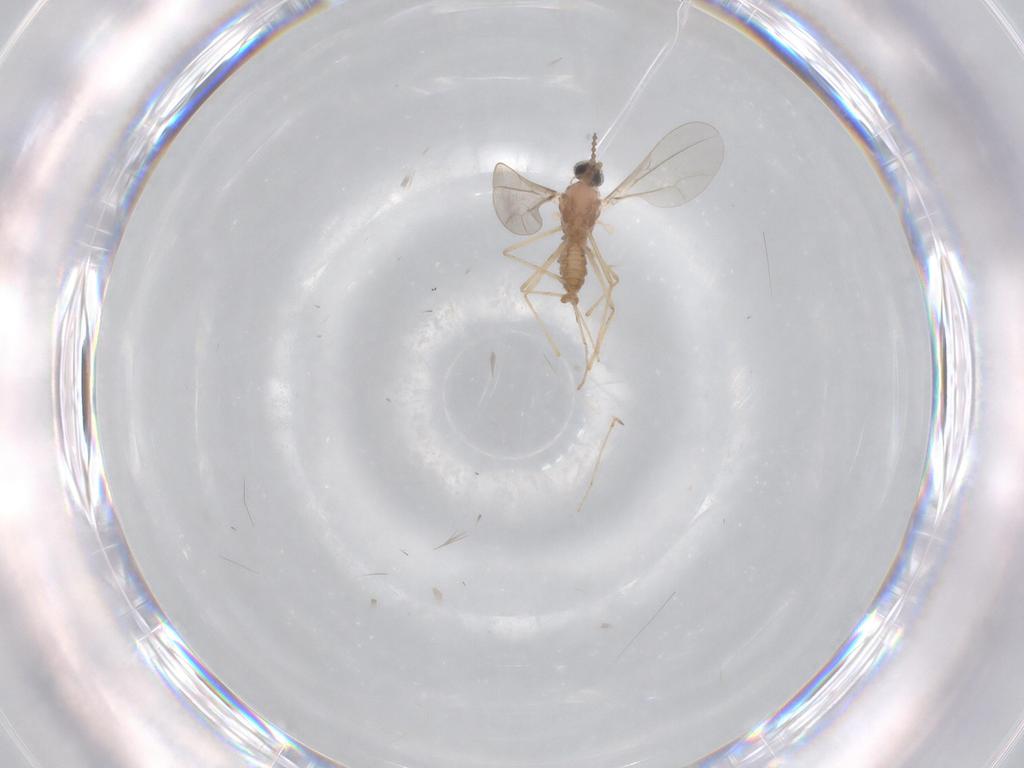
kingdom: Animalia
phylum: Arthropoda
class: Insecta
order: Diptera
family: Cecidomyiidae
